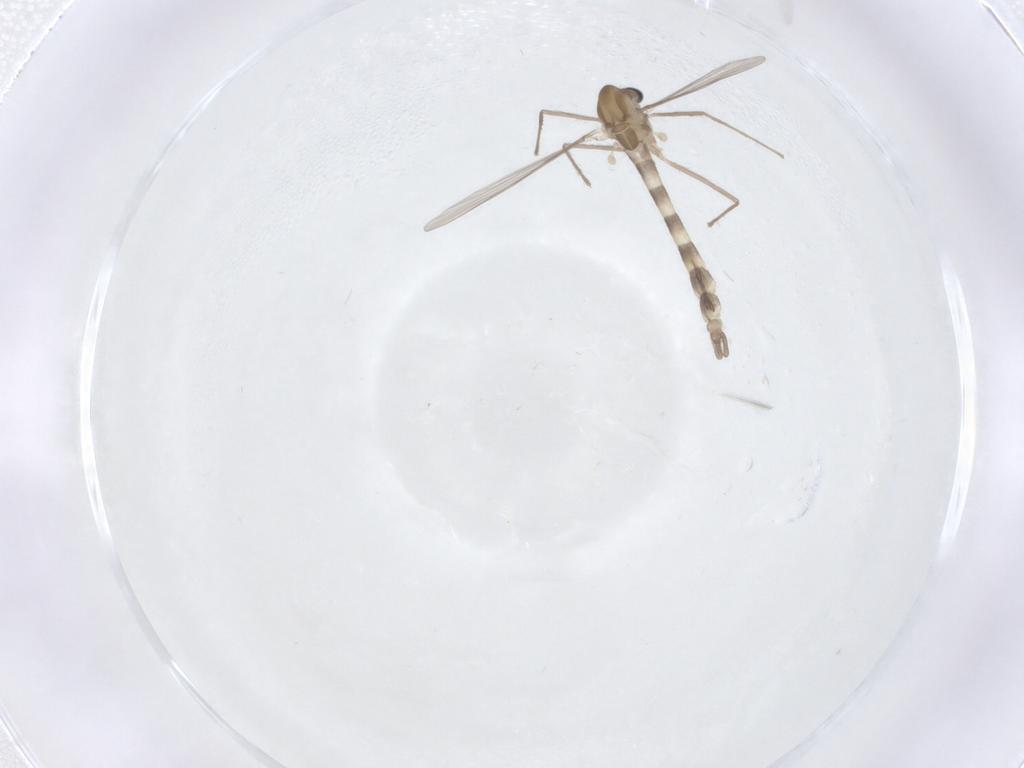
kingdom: Animalia
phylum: Arthropoda
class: Insecta
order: Diptera
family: Chironomidae
